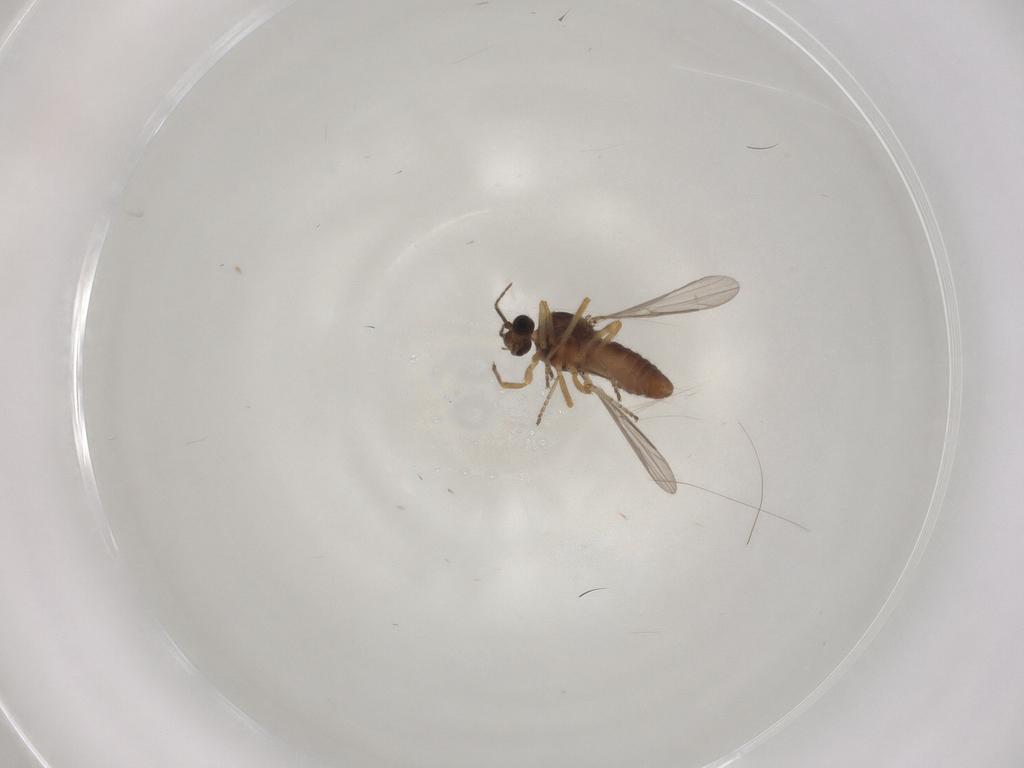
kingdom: Animalia
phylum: Arthropoda
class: Insecta
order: Diptera
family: Ceratopogonidae
